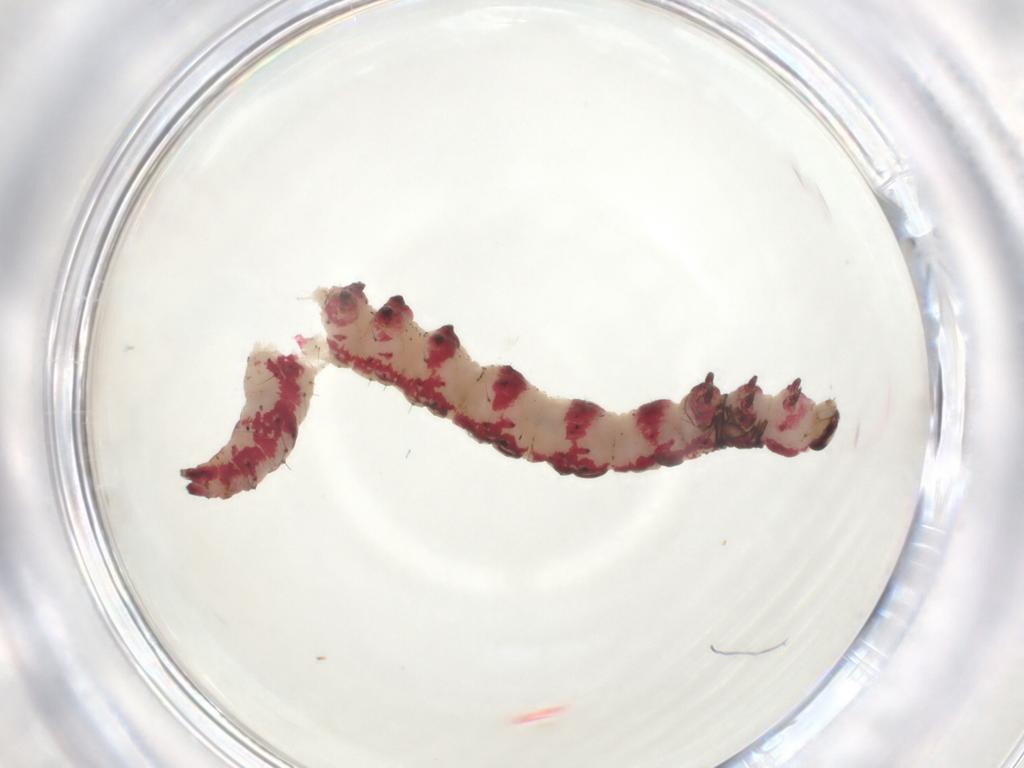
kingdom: Animalia
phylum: Arthropoda
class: Insecta
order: Lepidoptera
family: Erebidae
